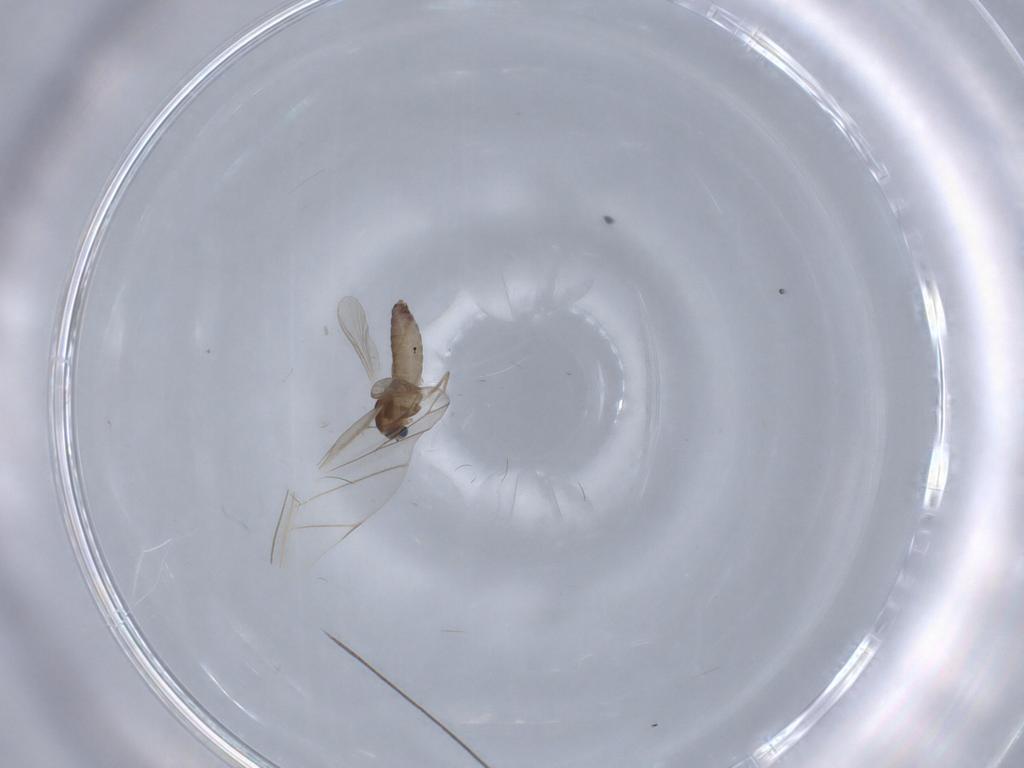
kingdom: Animalia
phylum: Arthropoda
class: Insecta
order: Diptera
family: Chironomidae
